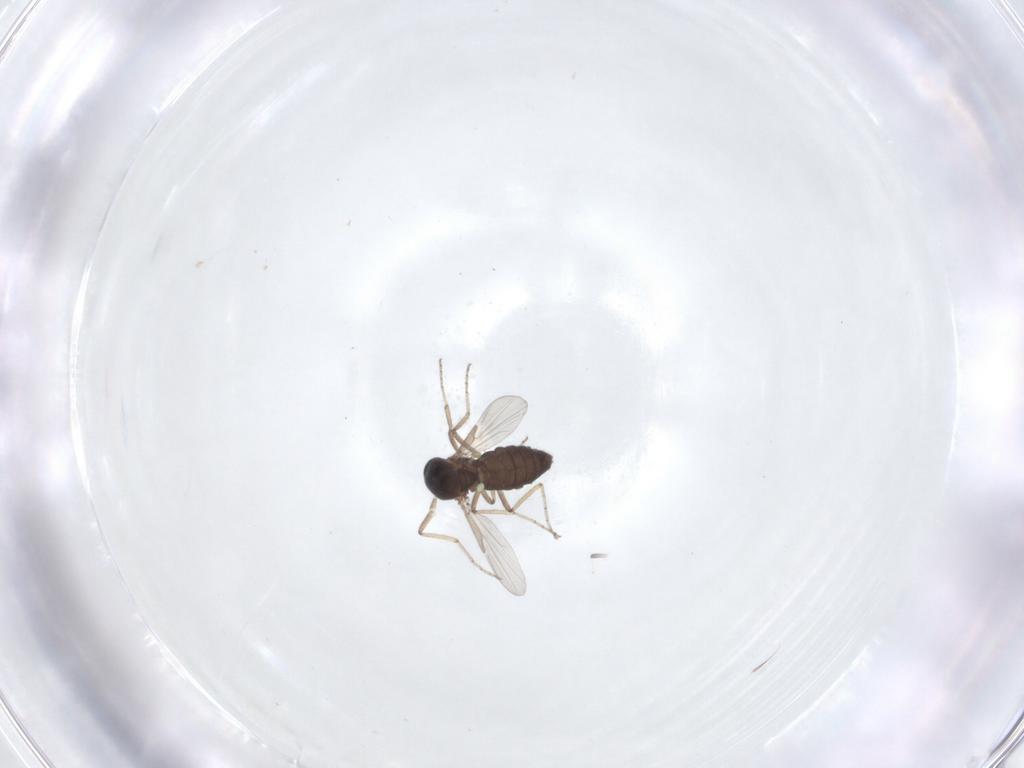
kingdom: Animalia
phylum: Arthropoda
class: Insecta
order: Diptera
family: Ceratopogonidae
